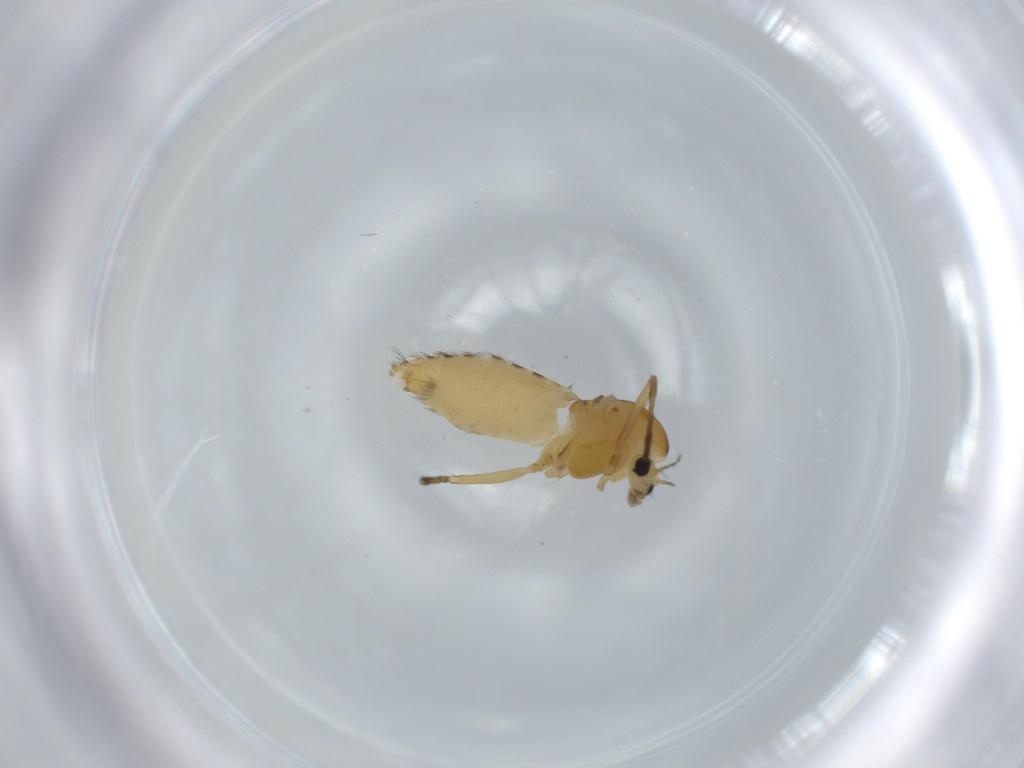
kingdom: Animalia
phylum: Arthropoda
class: Insecta
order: Diptera
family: Chironomidae
